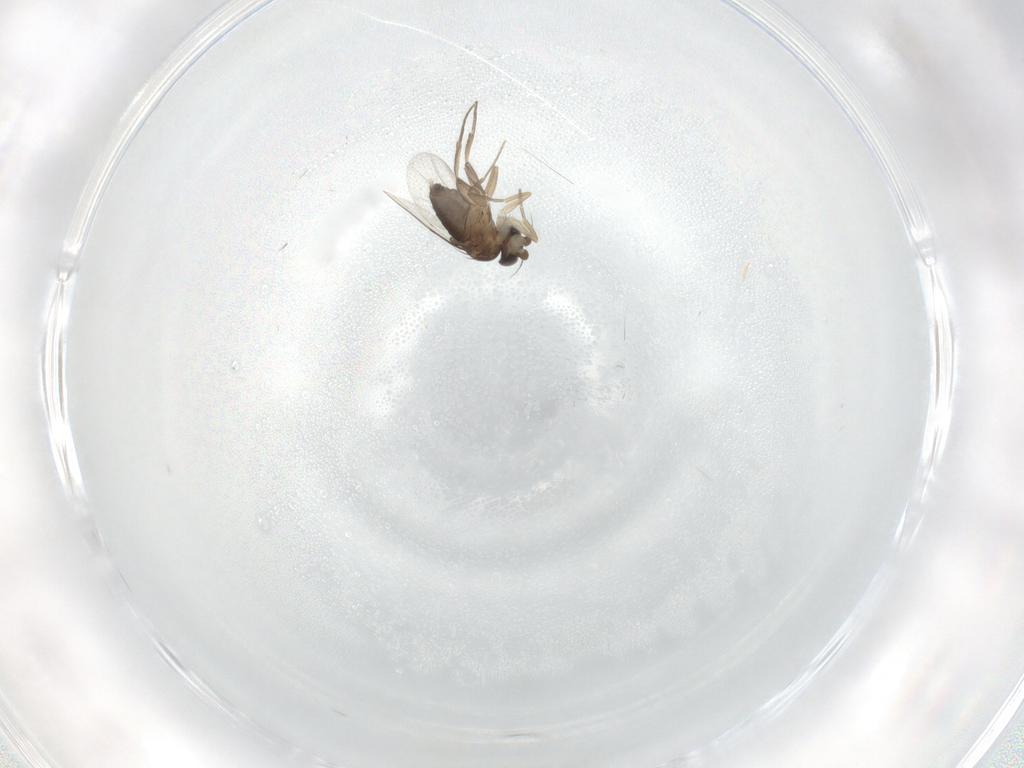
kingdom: Animalia
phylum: Arthropoda
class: Insecta
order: Diptera
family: Phoridae
